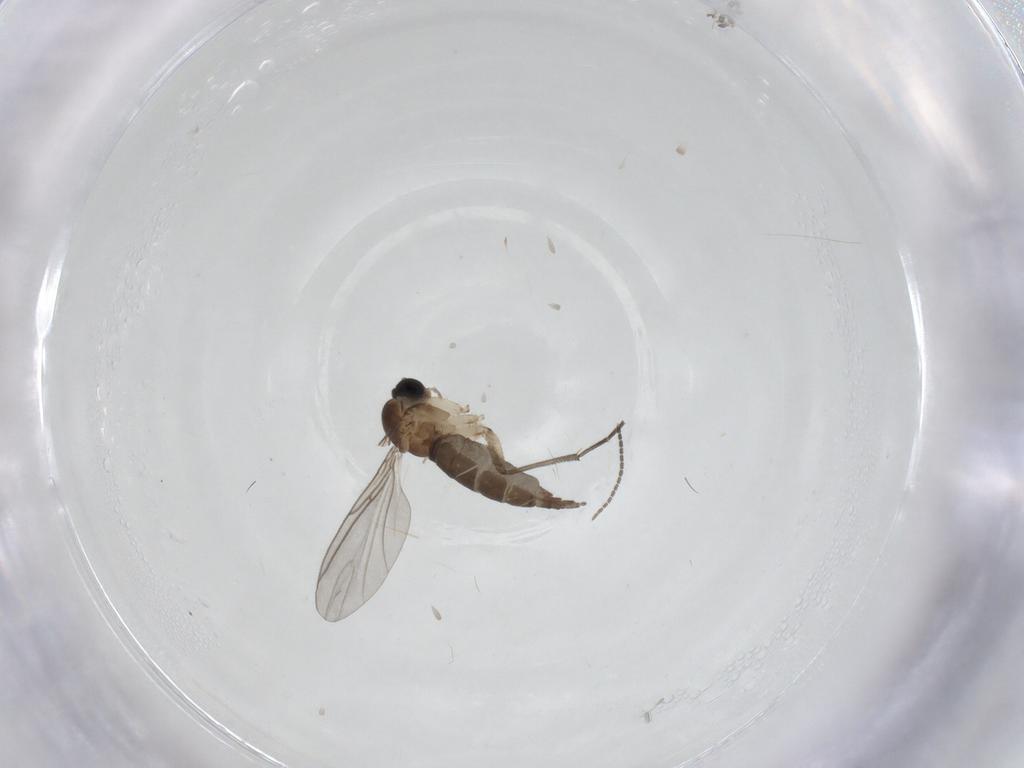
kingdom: Animalia
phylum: Arthropoda
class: Insecta
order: Diptera
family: Sciaridae
